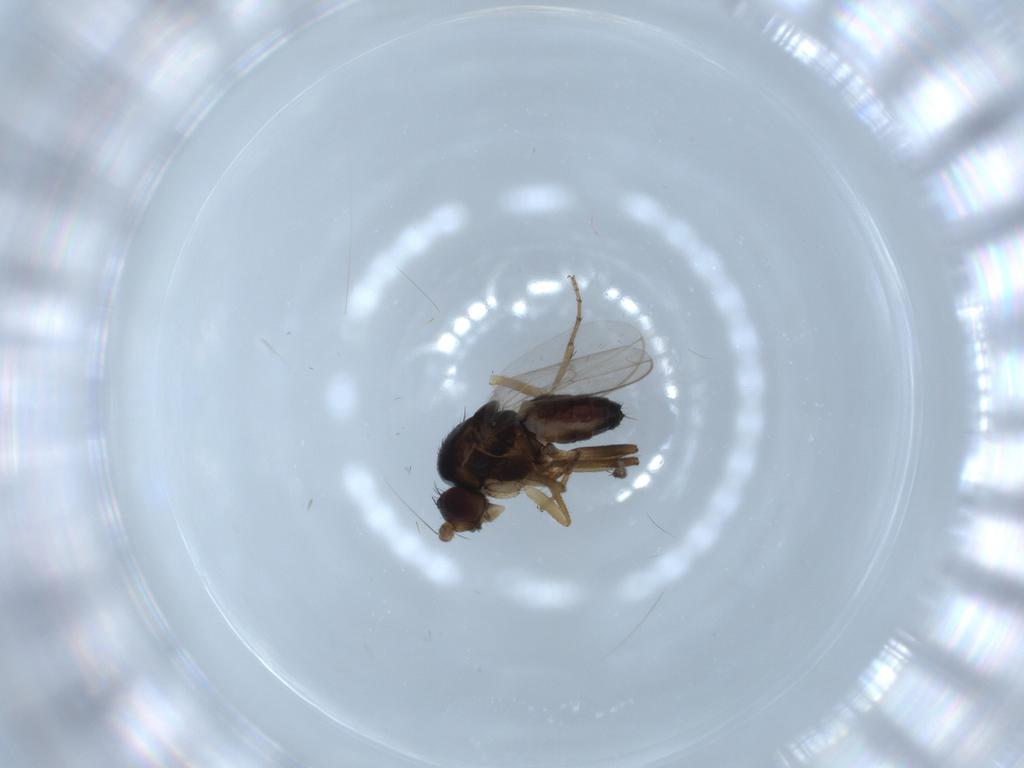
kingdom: Animalia
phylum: Arthropoda
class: Insecta
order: Diptera
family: Sphaeroceridae
